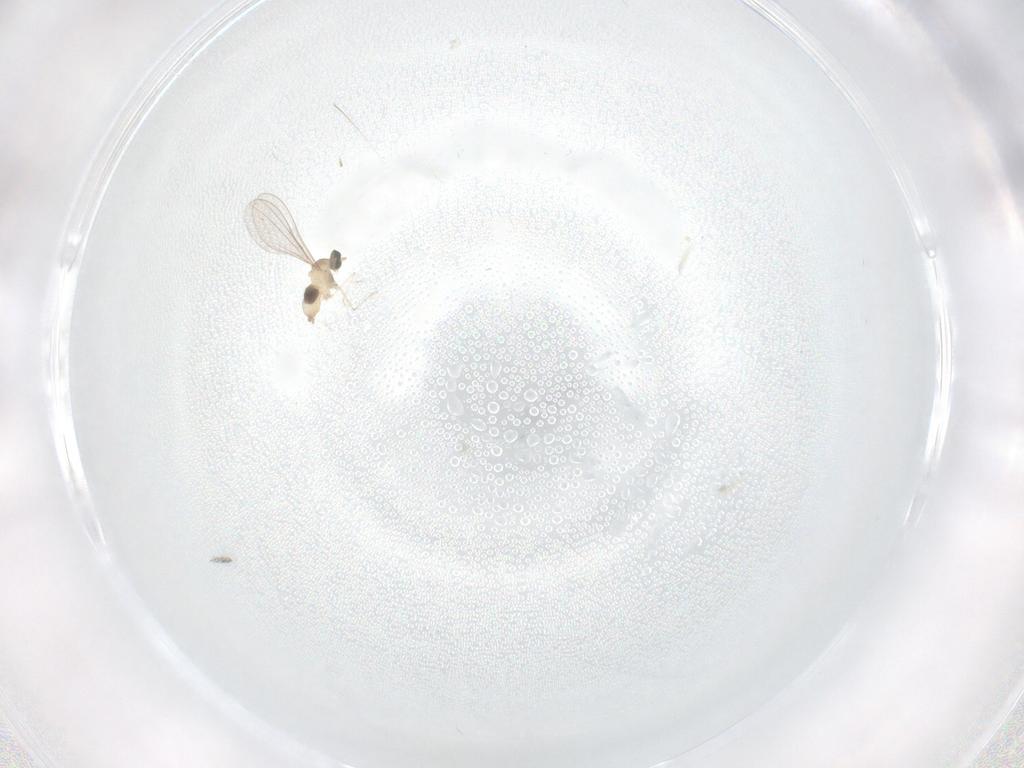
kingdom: Animalia
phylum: Arthropoda
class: Insecta
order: Diptera
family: Cecidomyiidae
